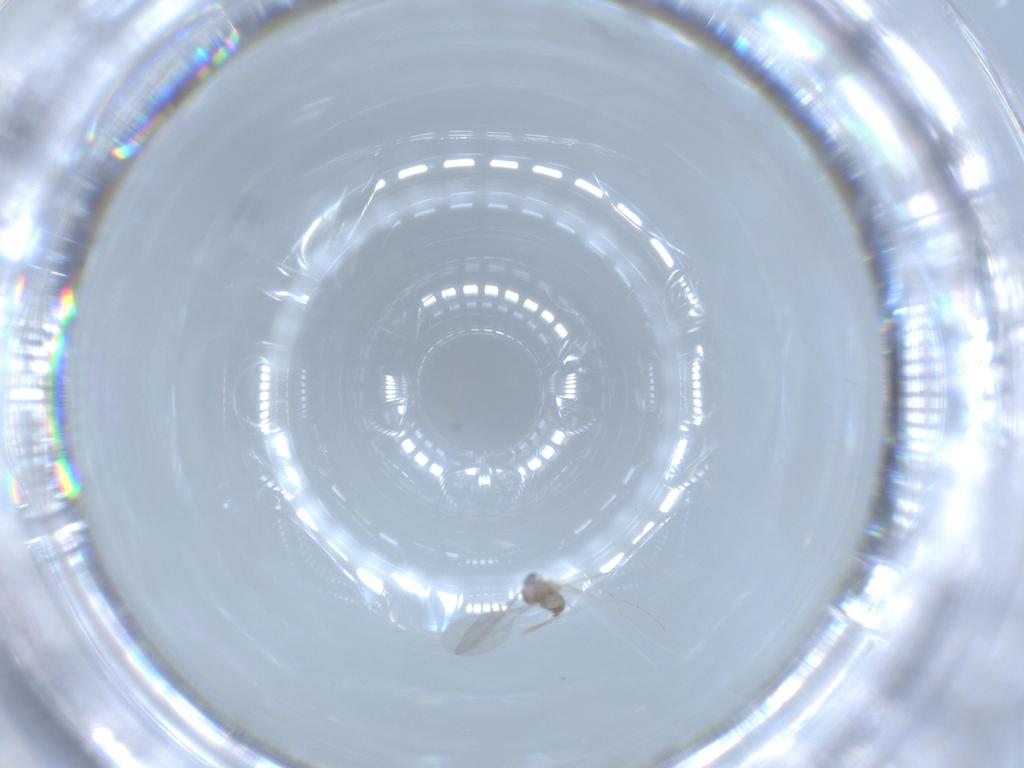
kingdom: Animalia
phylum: Arthropoda
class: Insecta
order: Diptera
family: Cecidomyiidae
